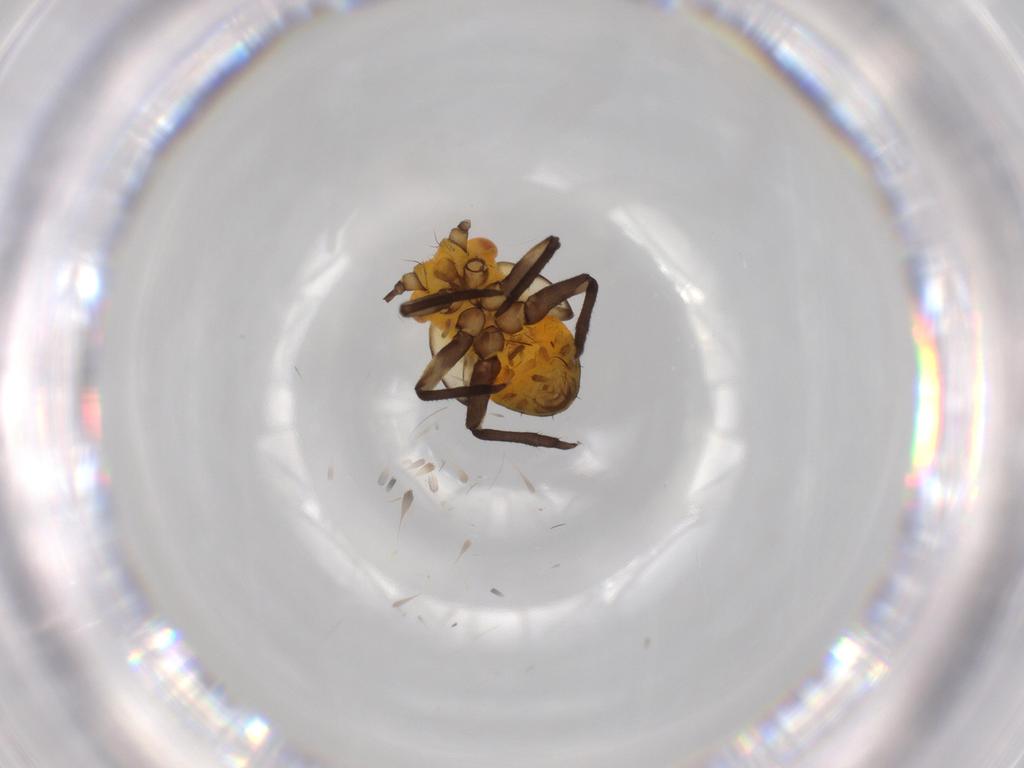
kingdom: Animalia
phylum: Arthropoda
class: Insecta
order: Hemiptera
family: Psyllidae
